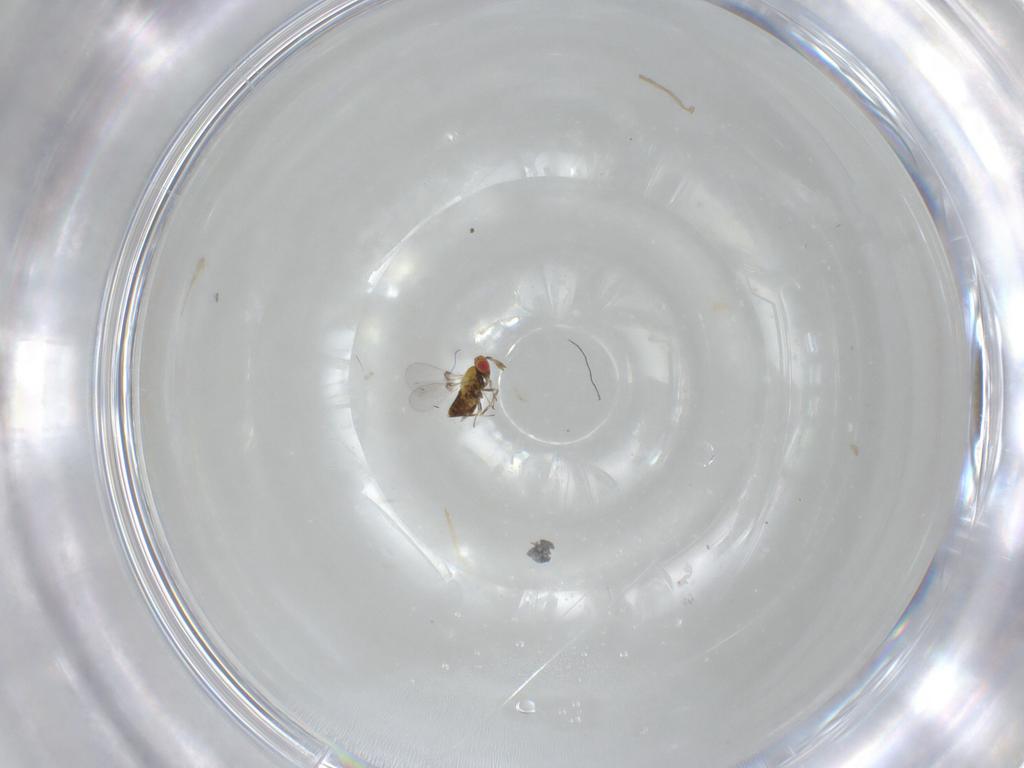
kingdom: Animalia
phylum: Arthropoda
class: Insecta
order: Hymenoptera
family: Trichogrammatidae
